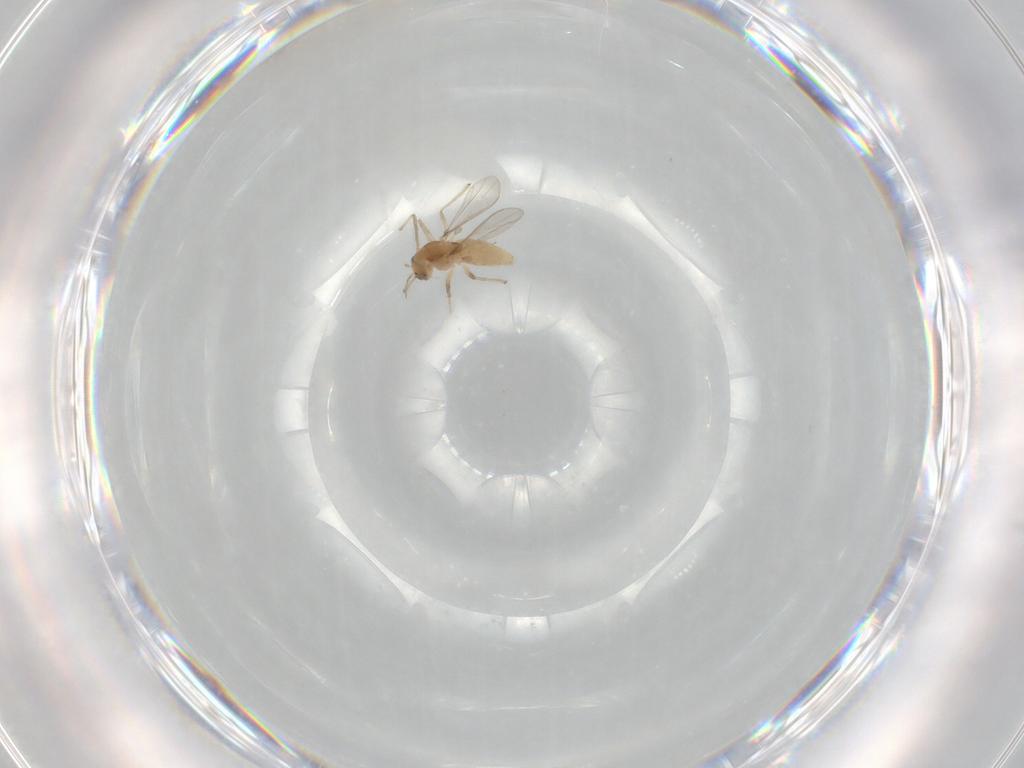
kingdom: Animalia
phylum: Arthropoda
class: Insecta
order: Diptera
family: Chironomidae
